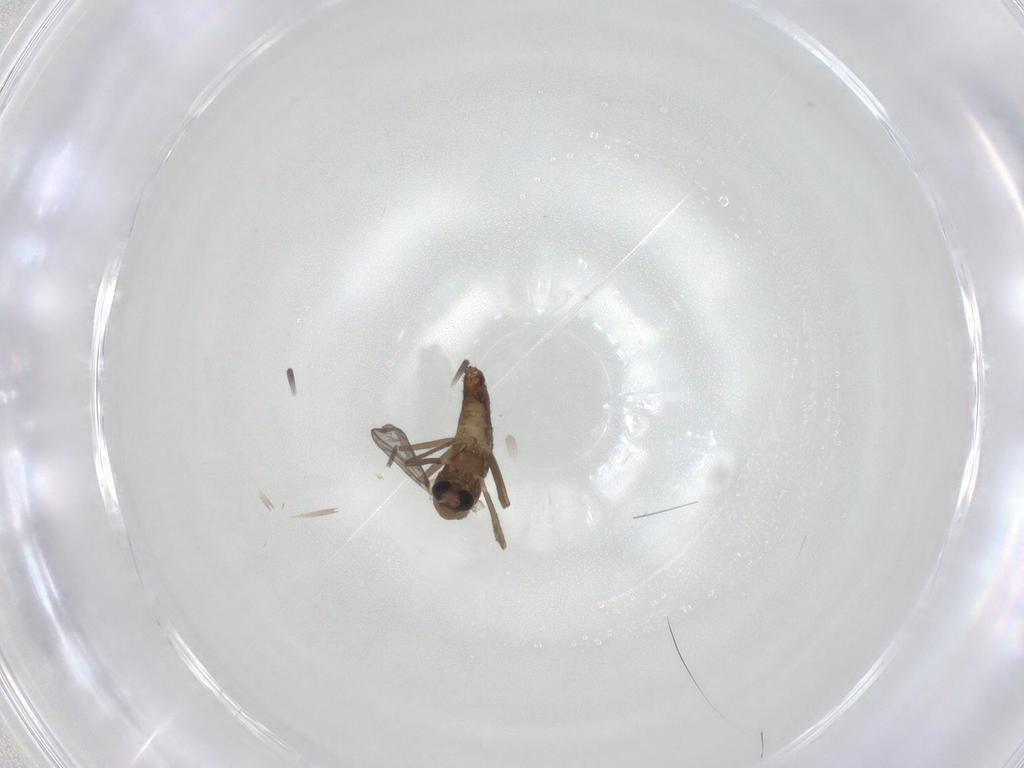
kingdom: Animalia
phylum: Arthropoda
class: Insecta
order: Diptera
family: Chironomidae
